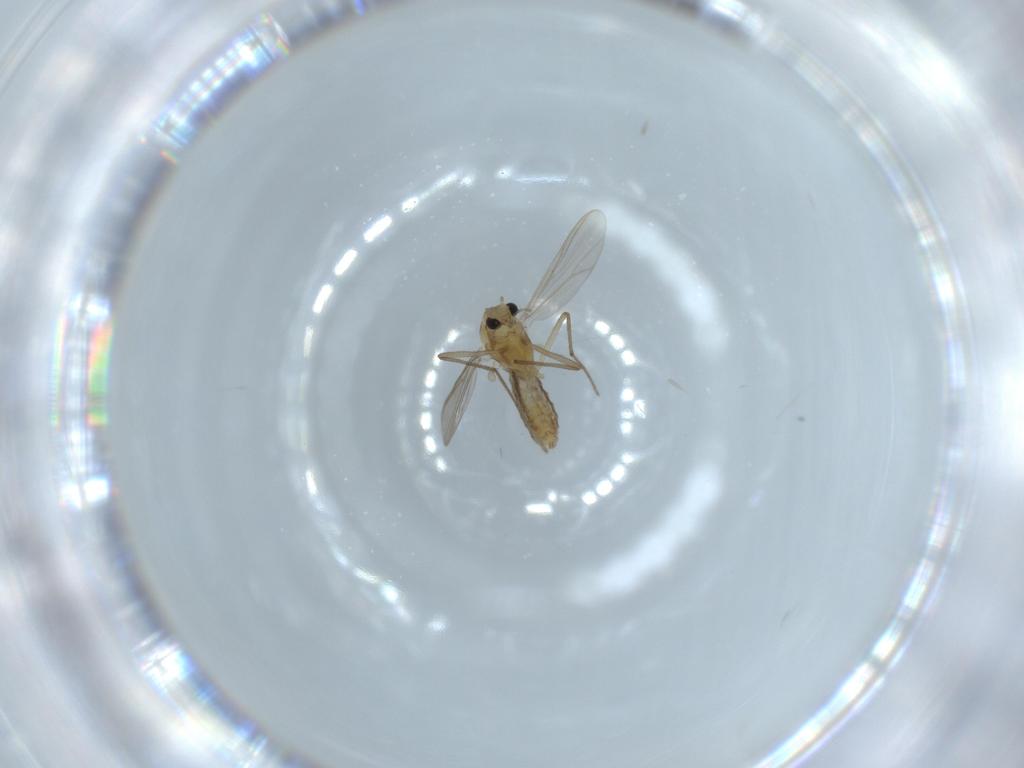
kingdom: Animalia
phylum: Arthropoda
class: Insecta
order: Diptera
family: Chironomidae
